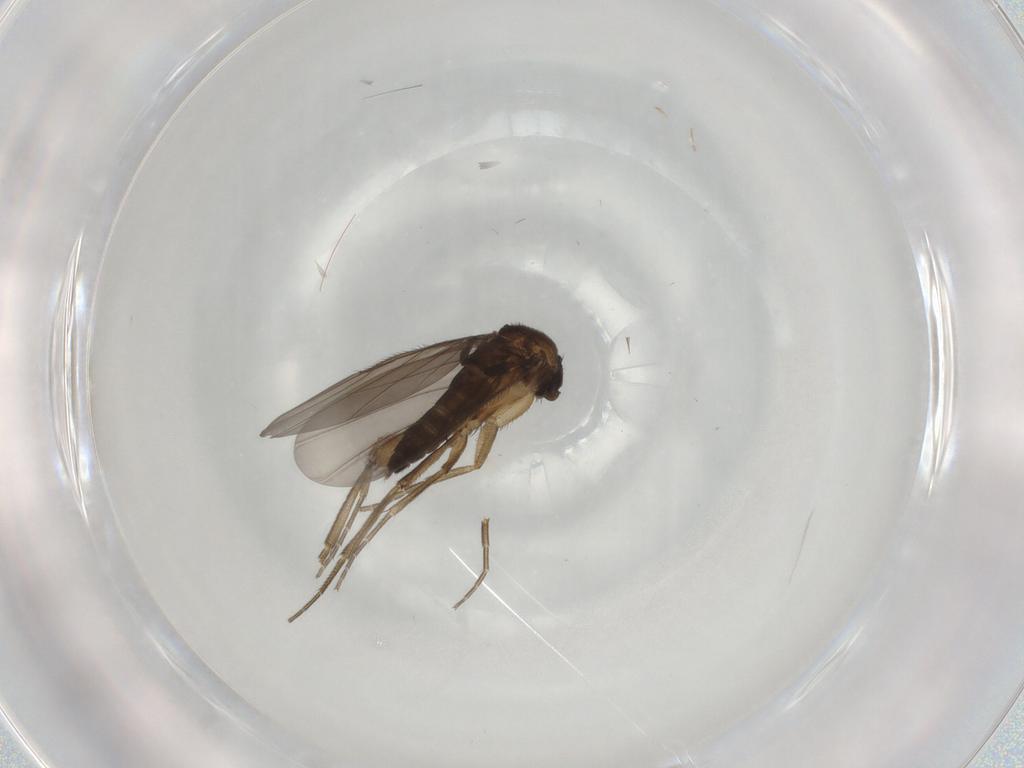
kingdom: Animalia
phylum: Arthropoda
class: Insecta
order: Diptera
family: Phoridae
